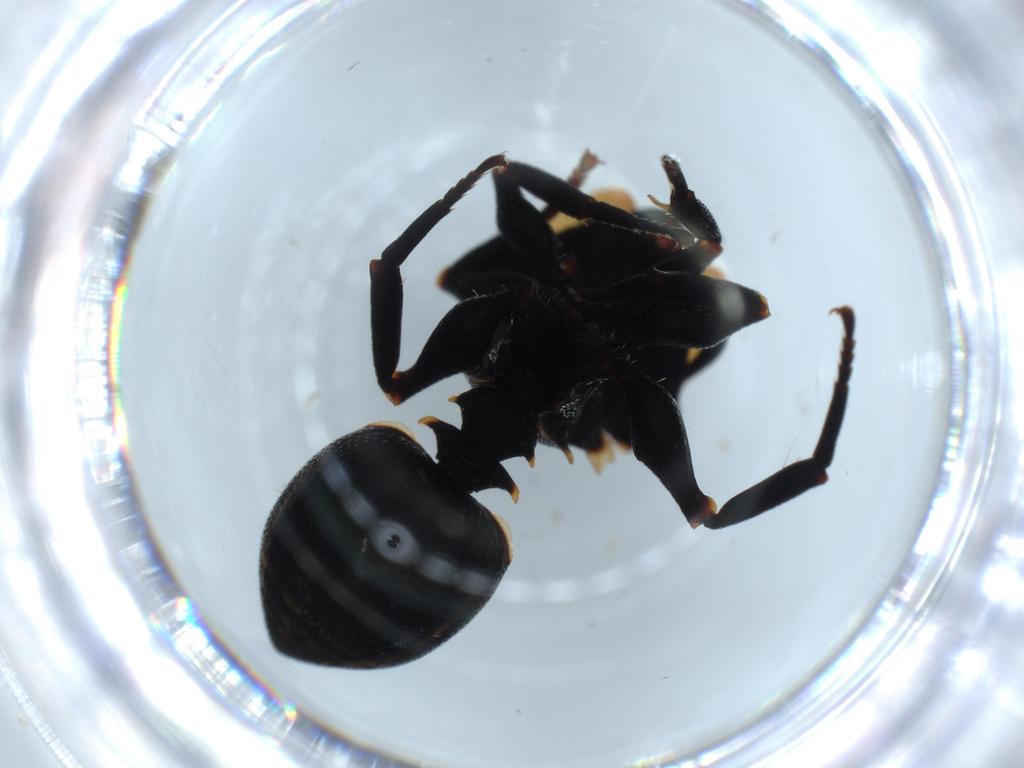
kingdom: Animalia
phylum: Arthropoda
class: Insecta
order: Hymenoptera
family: Formicidae
